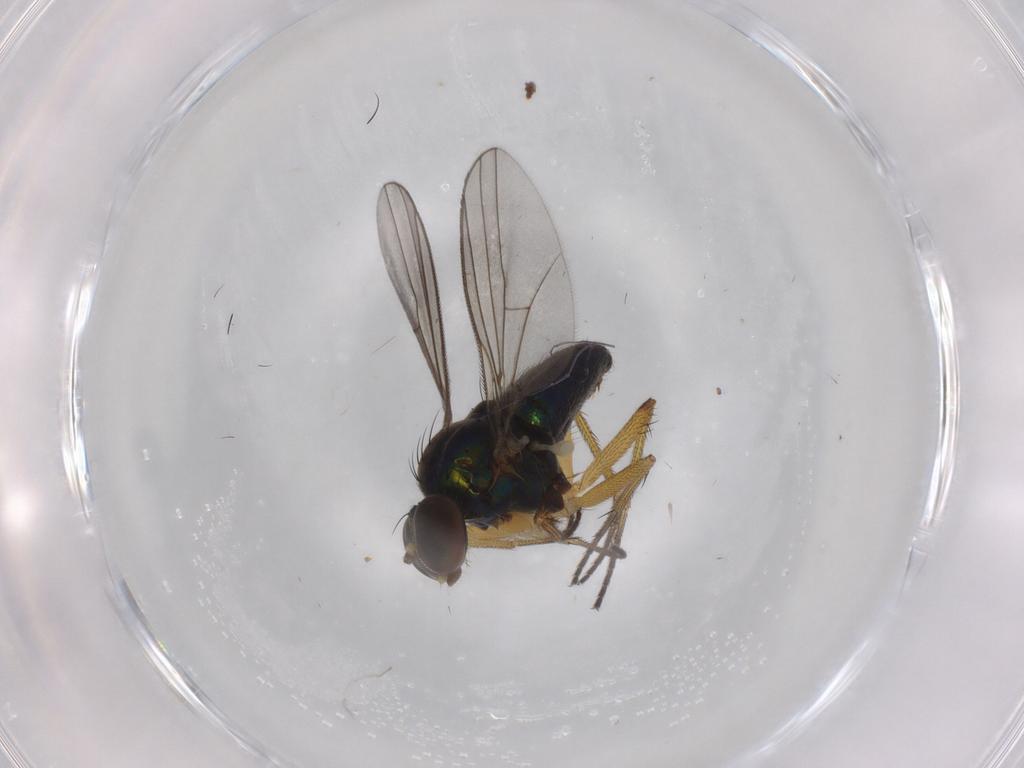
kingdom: Animalia
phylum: Arthropoda
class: Insecta
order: Diptera
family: Dolichopodidae
